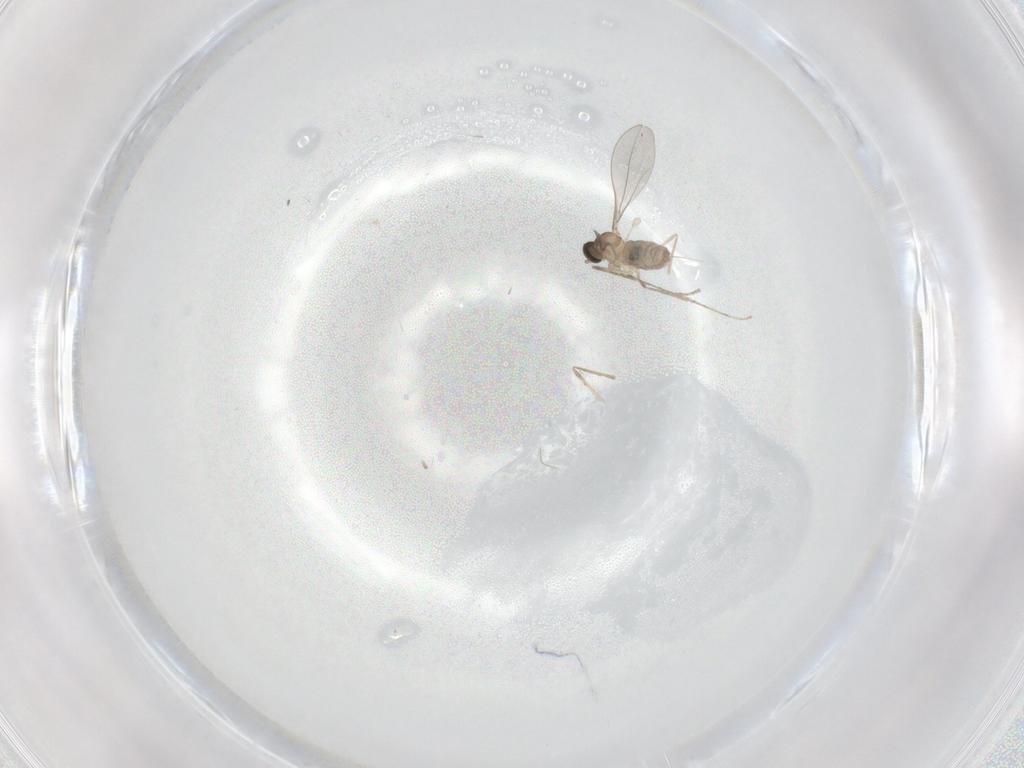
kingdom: Animalia
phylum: Arthropoda
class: Insecta
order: Diptera
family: Cecidomyiidae
